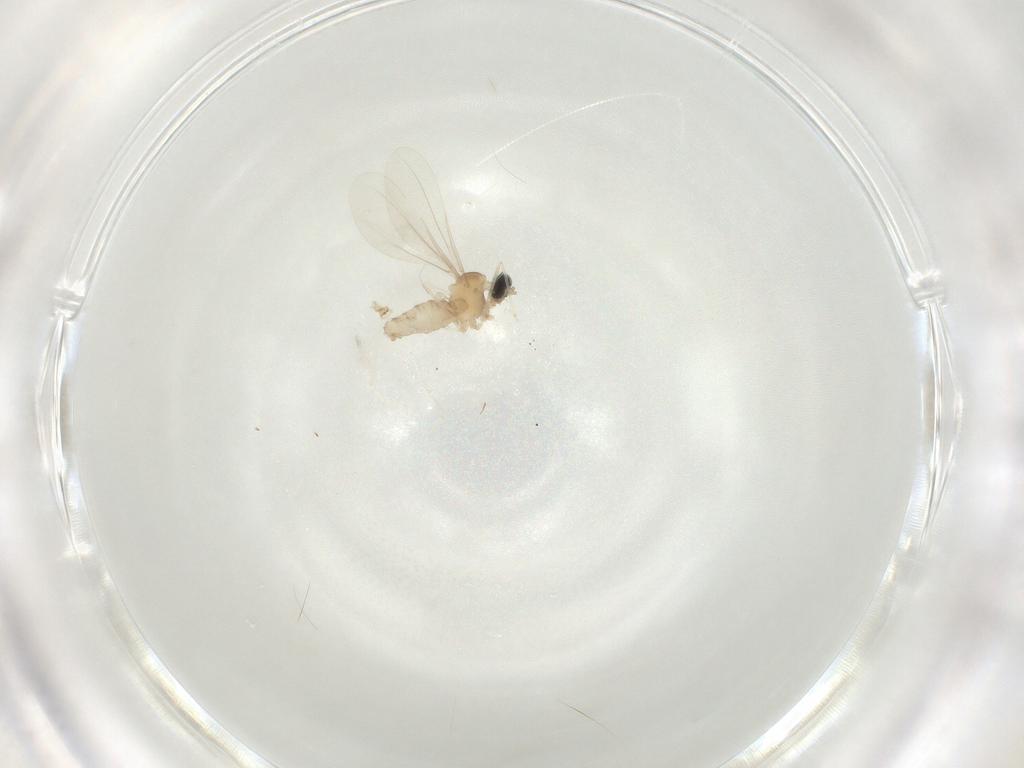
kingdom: Animalia
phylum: Arthropoda
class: Insecta
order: Diptera
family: Cecidomyiidae
